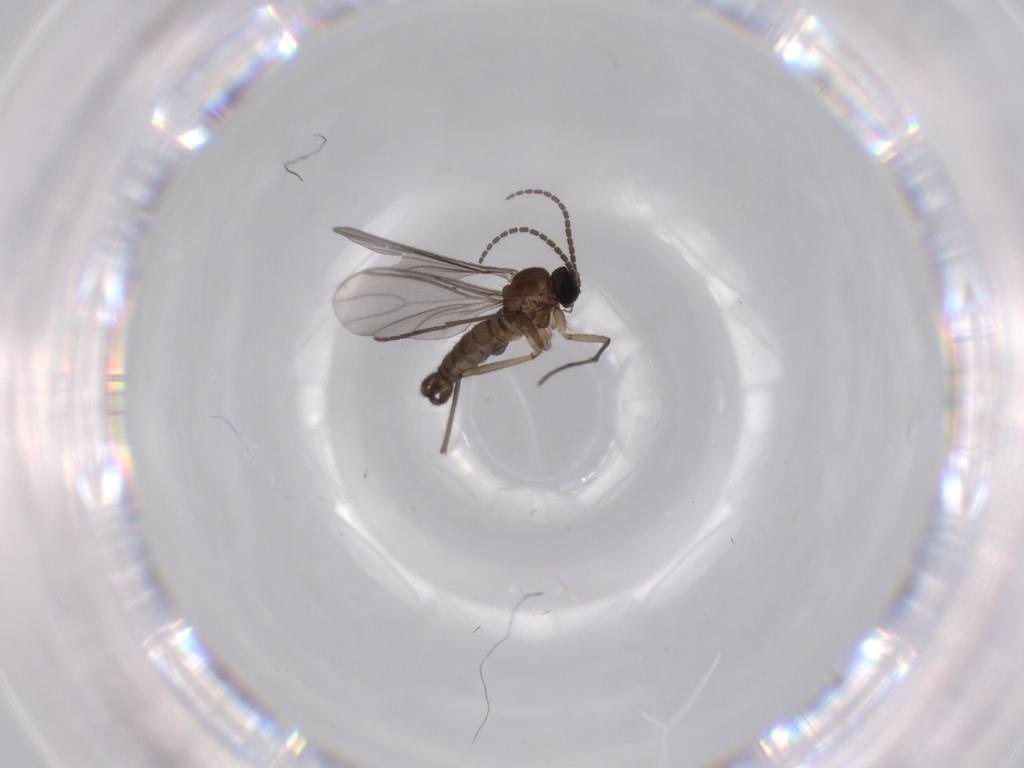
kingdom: Animalia
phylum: Arthropoda
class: Insecta
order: Diptera
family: Sciaridae
